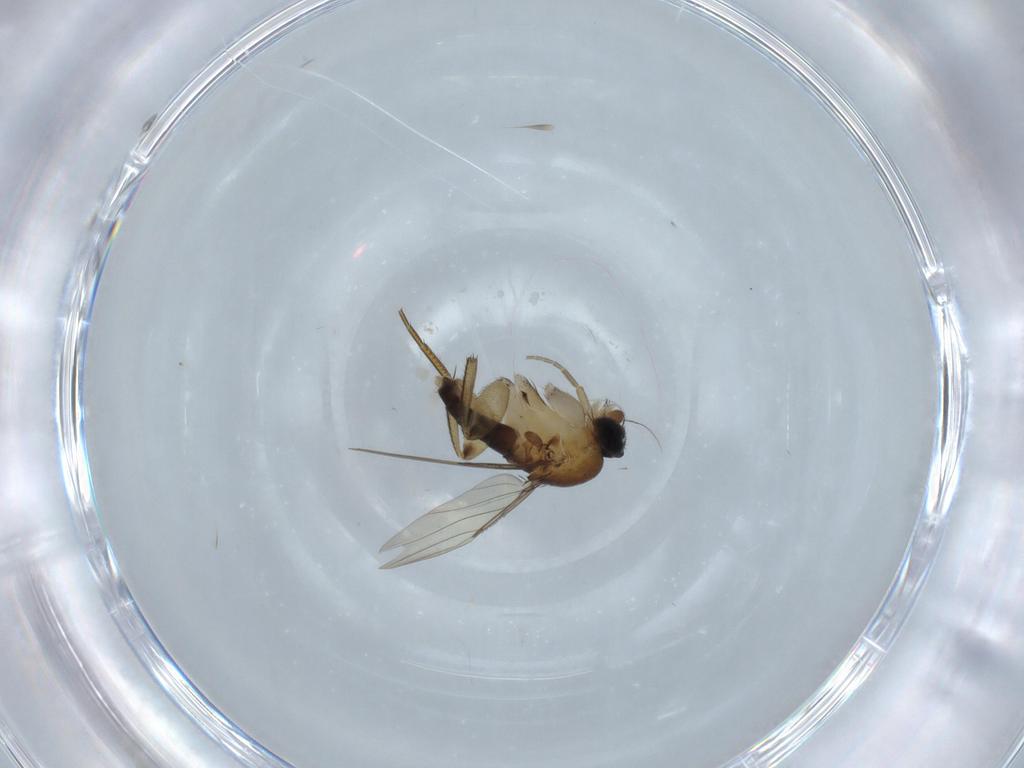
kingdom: Animalia
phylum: Arthropoda
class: Insecta
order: Diptera
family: Phoridae
